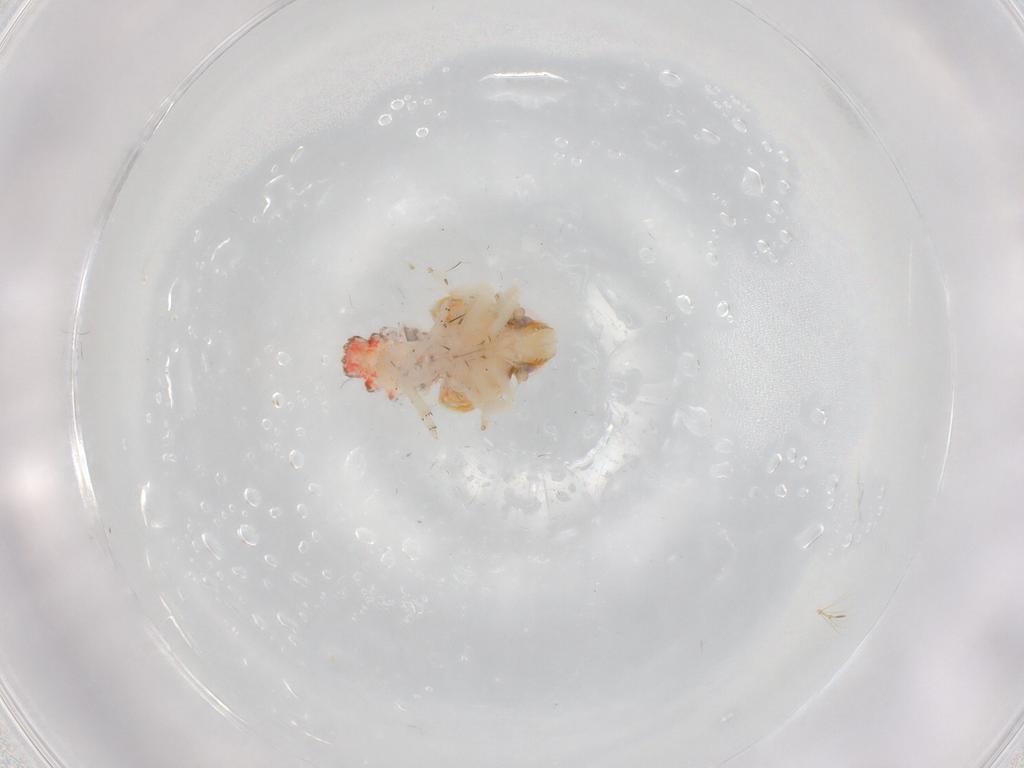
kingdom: Animalia
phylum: Arthropoda
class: Insecta
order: Hemiptera
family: Nogodinidae
